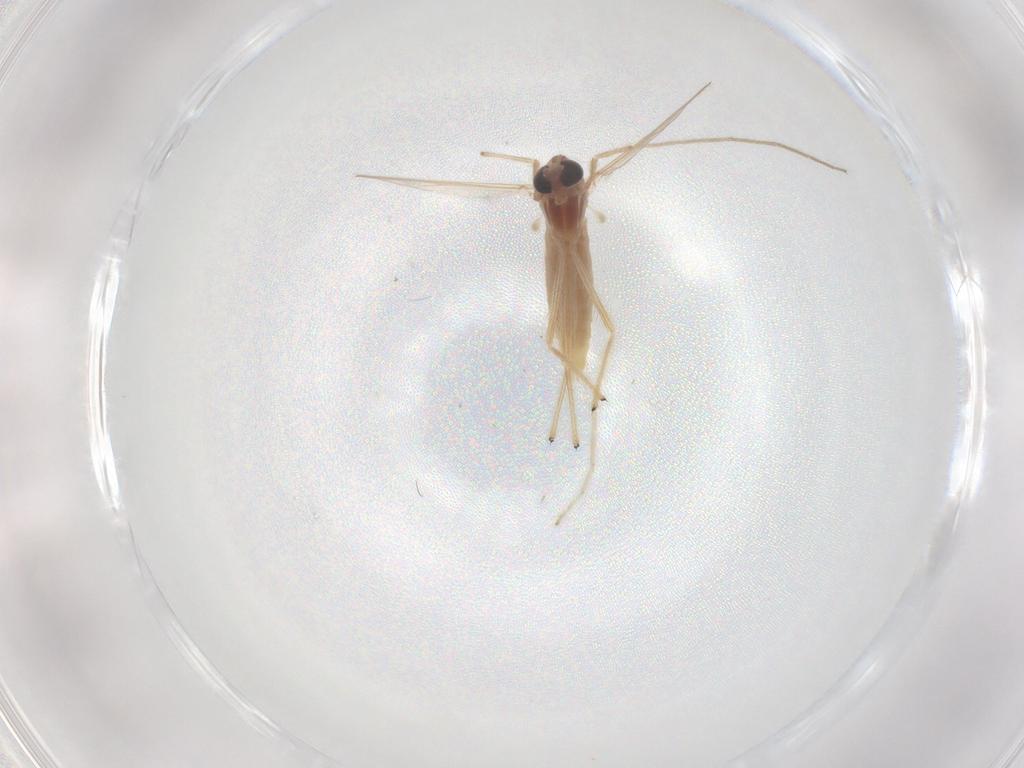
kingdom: Animalia
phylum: Arthropoda
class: Insecta
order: Diptera
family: Chironomidae
